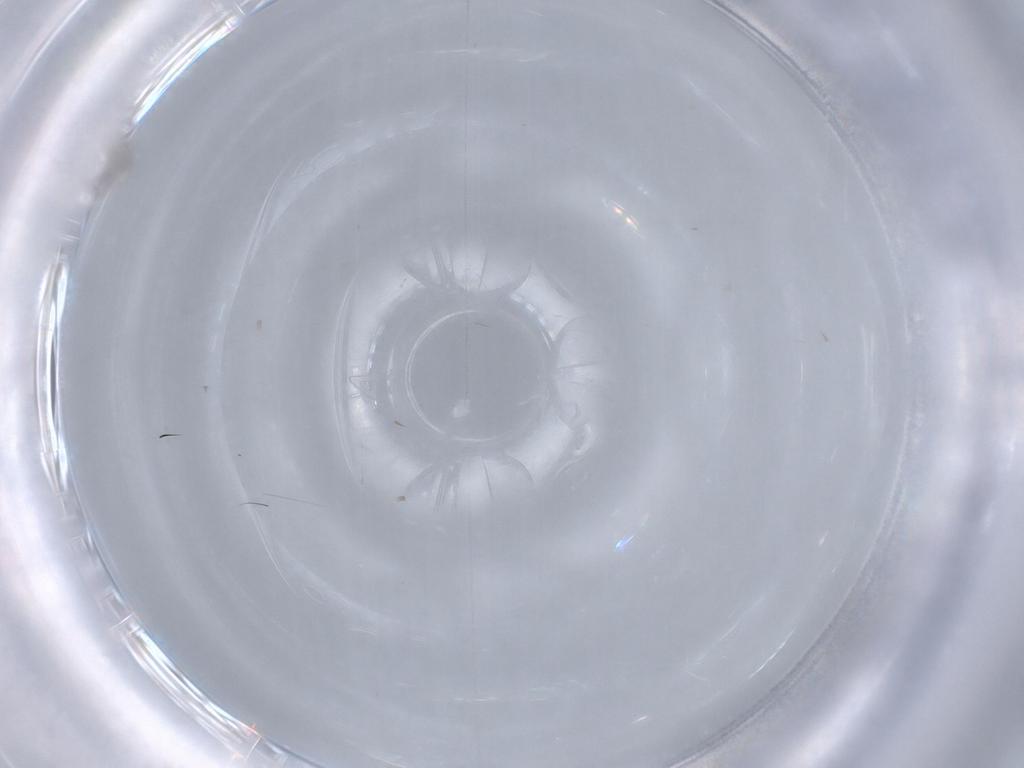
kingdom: Animalia
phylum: Arthropoda
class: Insecta
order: Diptera
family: Cecidomyiidae
